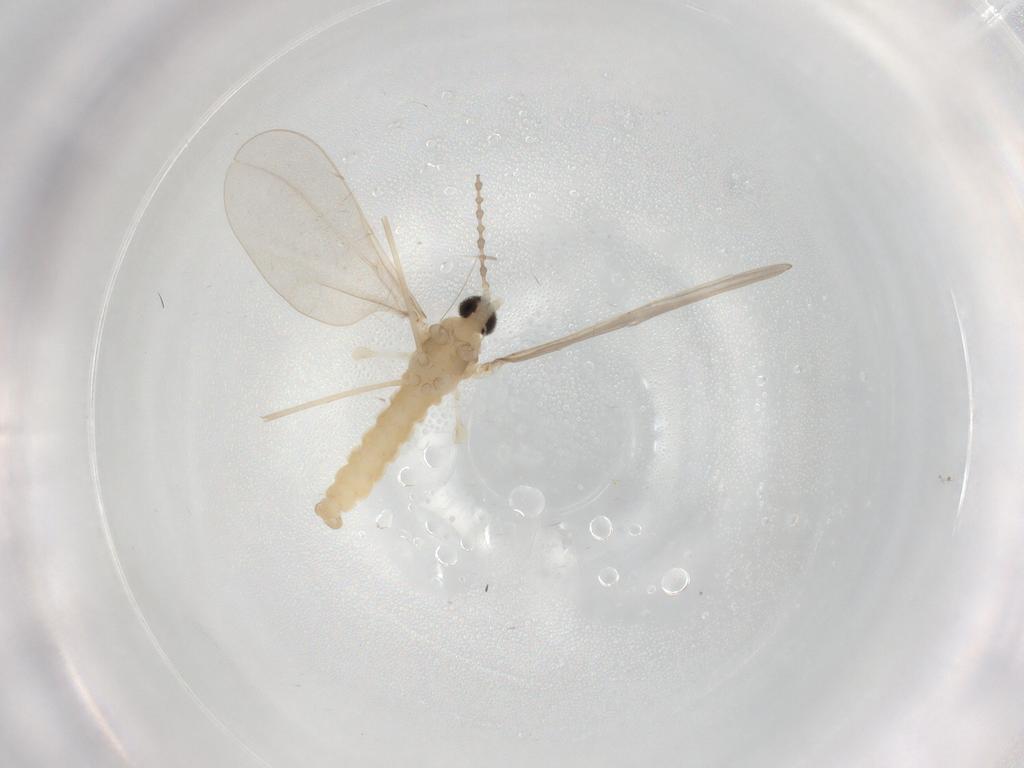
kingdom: Animalia
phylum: Arthropoda
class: Insecta
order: Diptera
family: Cecidomyiidae
